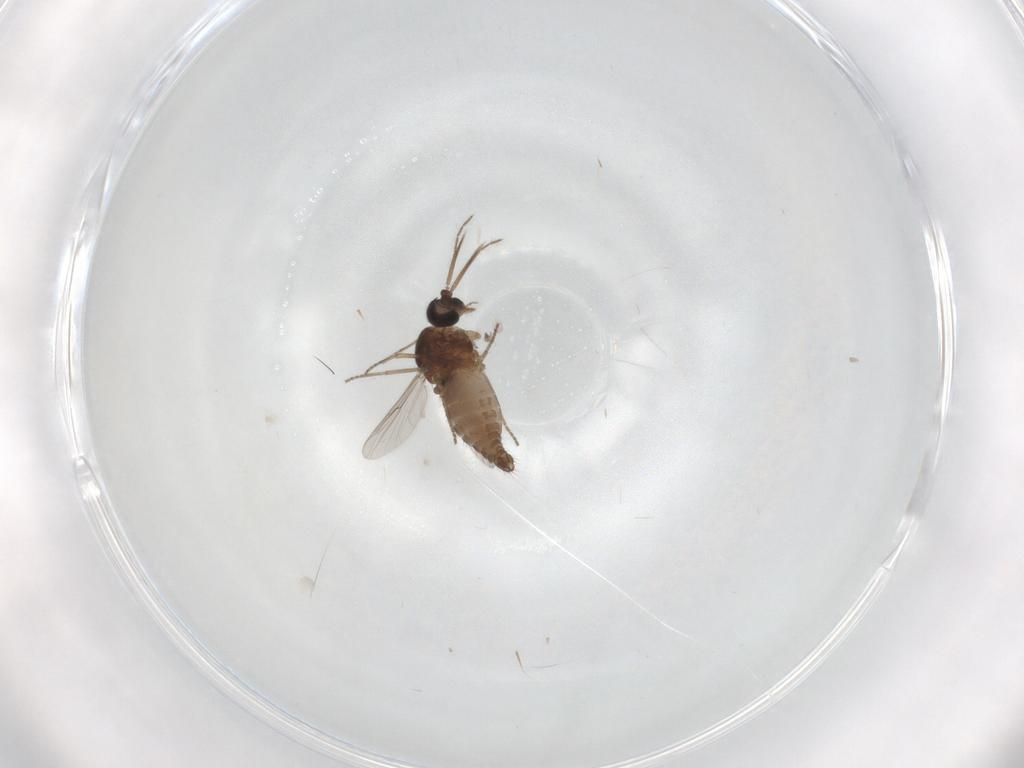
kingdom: Animalia
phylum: Arthropoda
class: Insecta
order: Diptera
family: Ceratopogonidae
